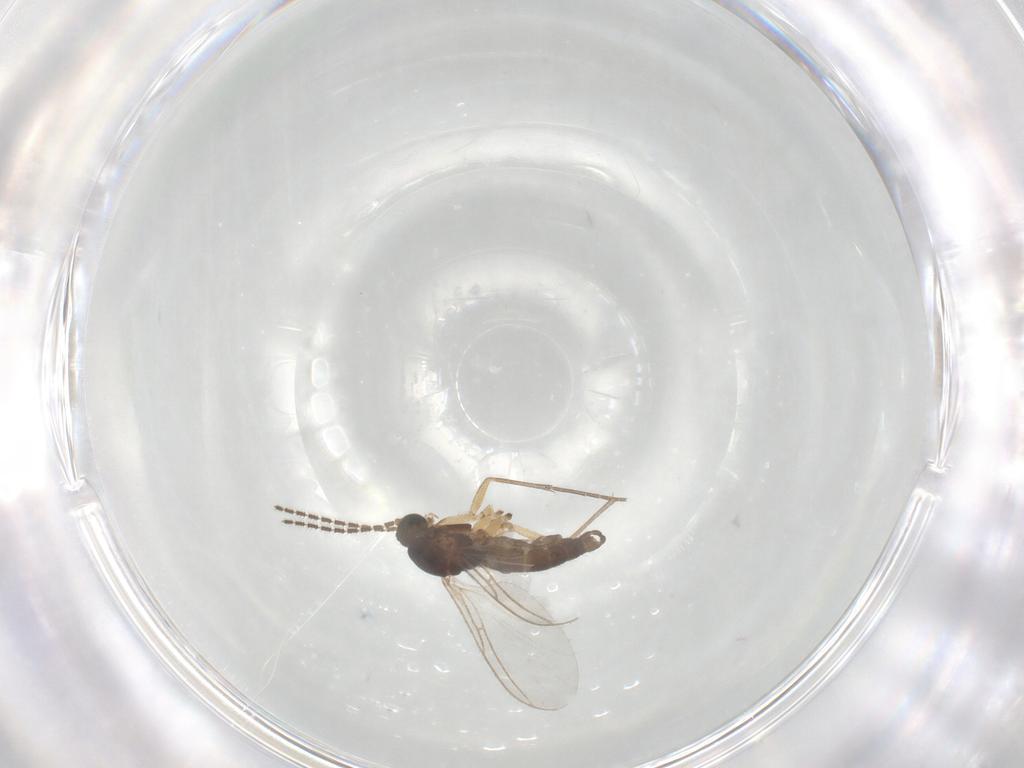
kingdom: Animalia
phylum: Arthropoda
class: Insecta
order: Diptera
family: Sciaridae
